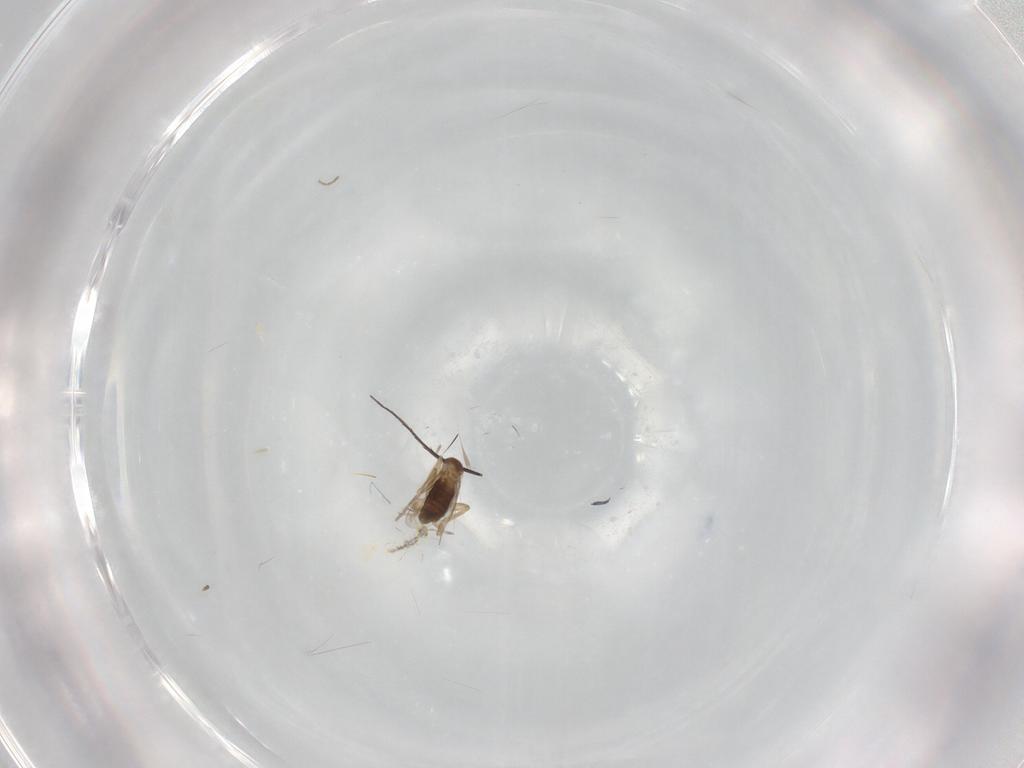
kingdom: Animalia
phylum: Arthropoda
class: Insecta
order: Diptera
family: Phoridae
